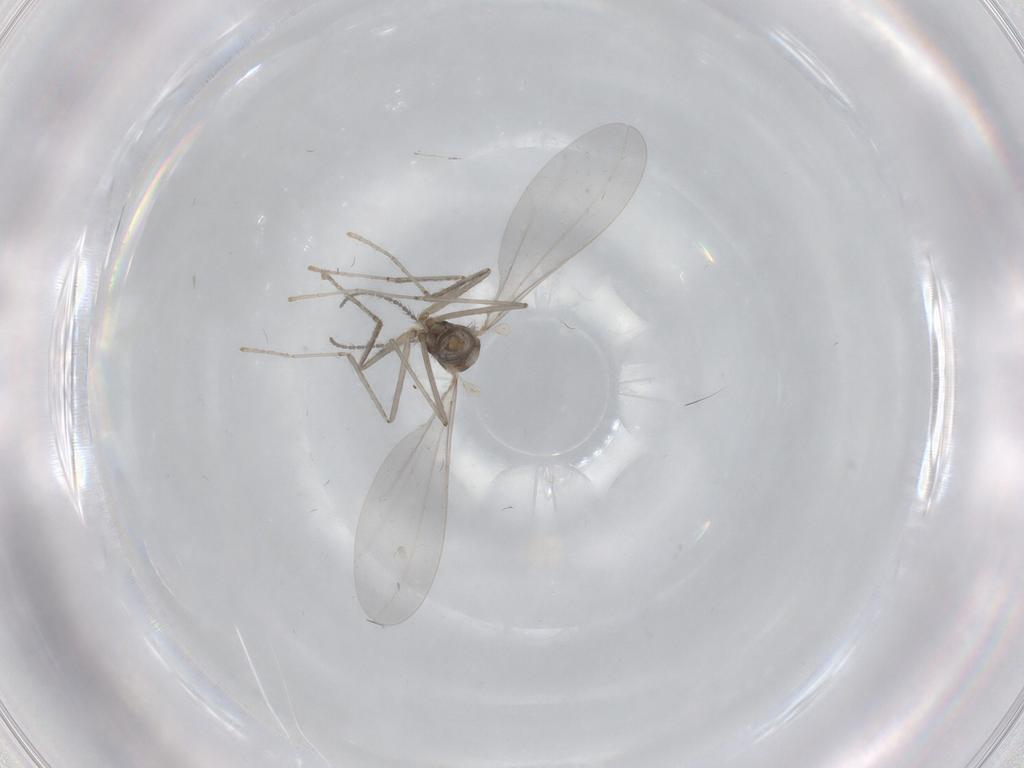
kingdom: Animalia
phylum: Arthropoda
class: Insecta
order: Diptera
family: Cecidomyiidae
